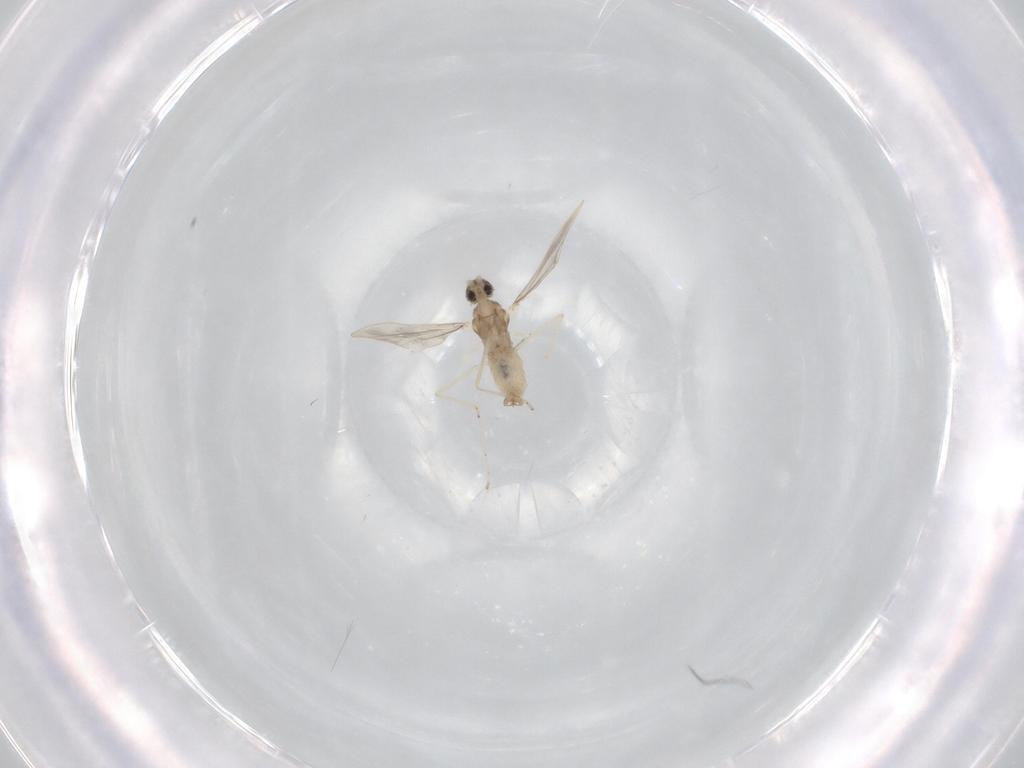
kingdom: Animalia
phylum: Arthropoda
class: Insecta
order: Diptera
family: Cecidomyiidae
